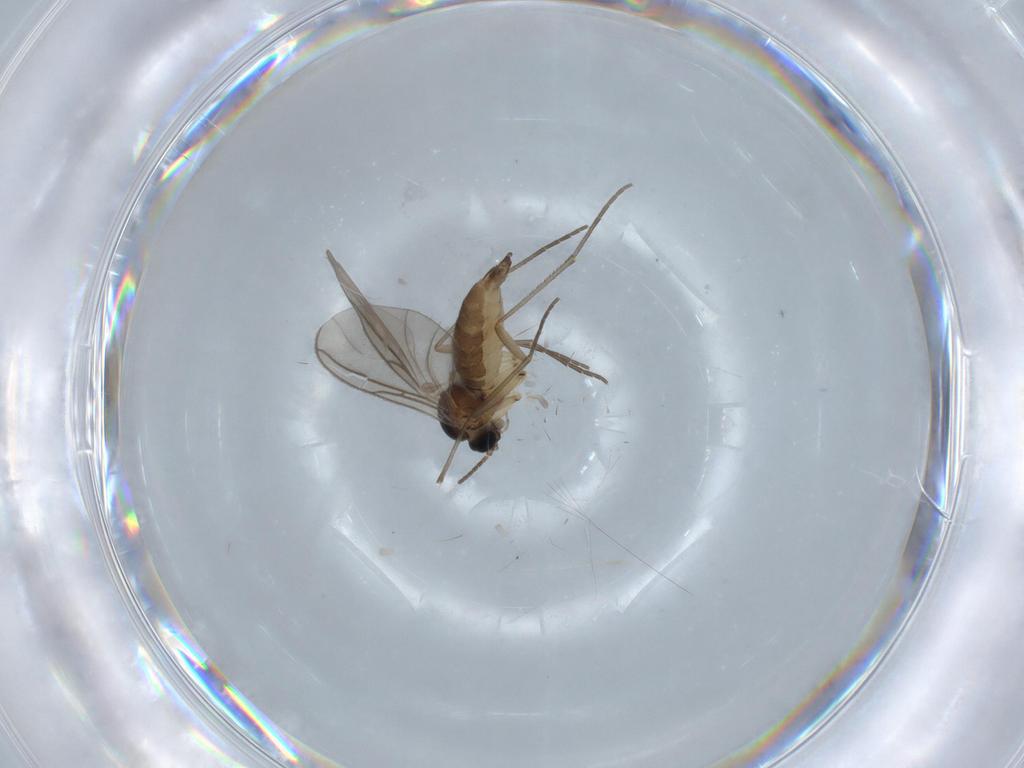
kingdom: Animalia
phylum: Arthropoda
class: Insecta
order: Diptera
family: Sciaridae
